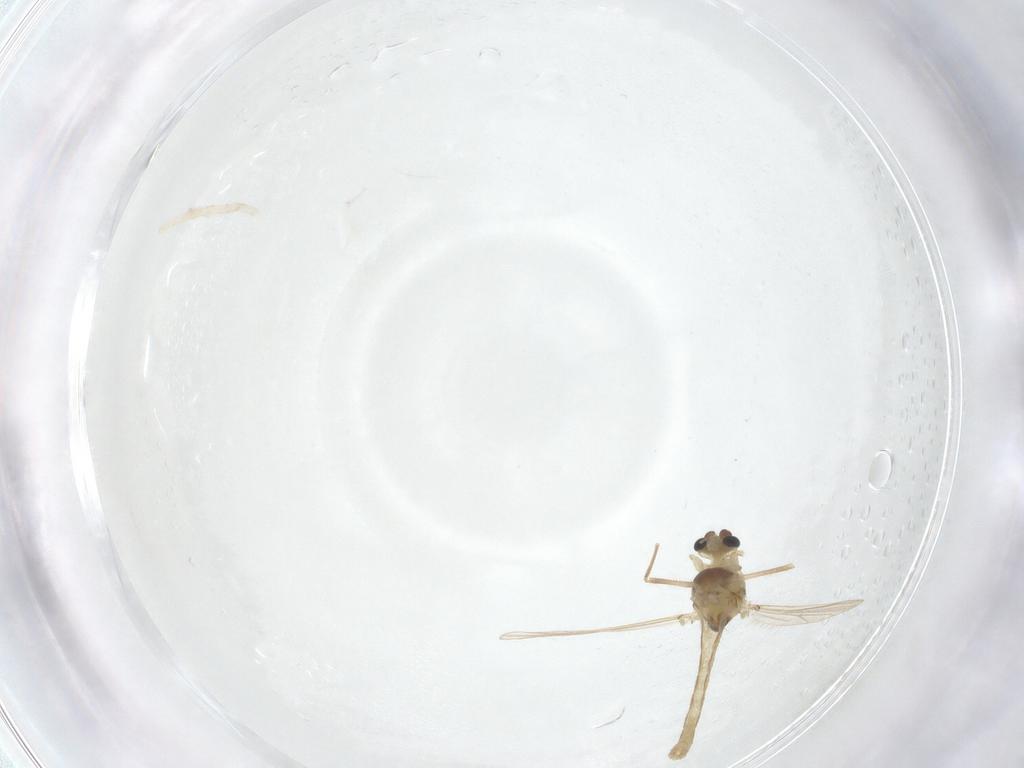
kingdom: Animalia
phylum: Arthropoda
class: Insecta
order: Diptera
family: Chironomidae
